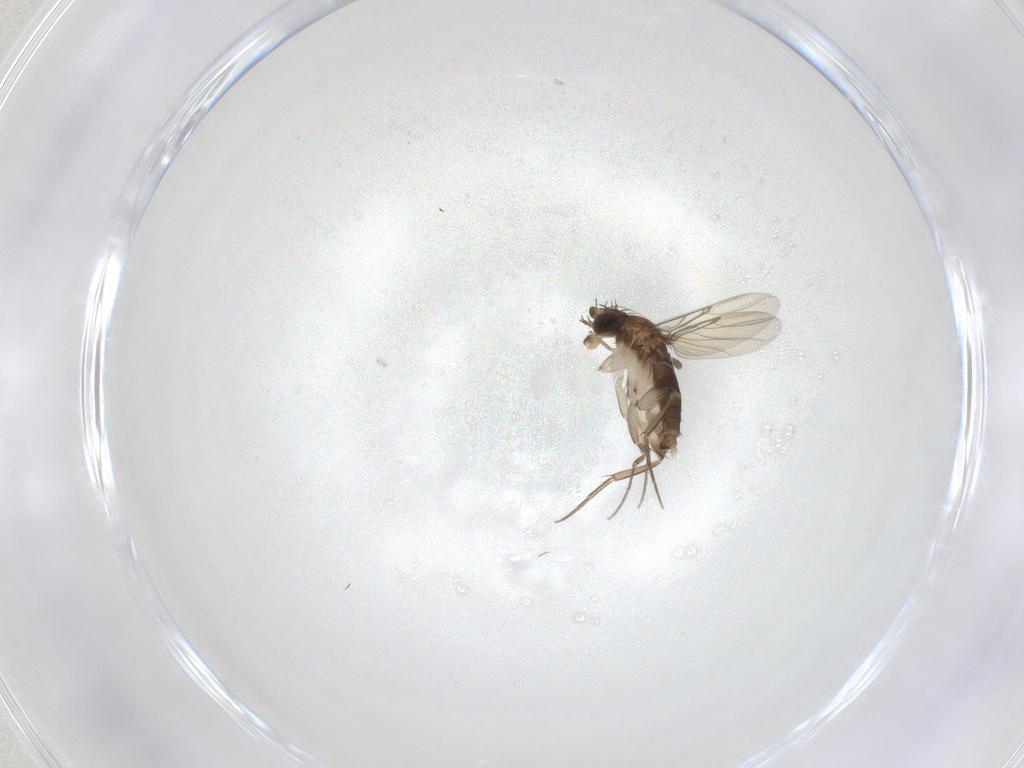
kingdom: Animalia
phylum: Arthropoda
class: Insecta
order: Diptera
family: Phoridae
